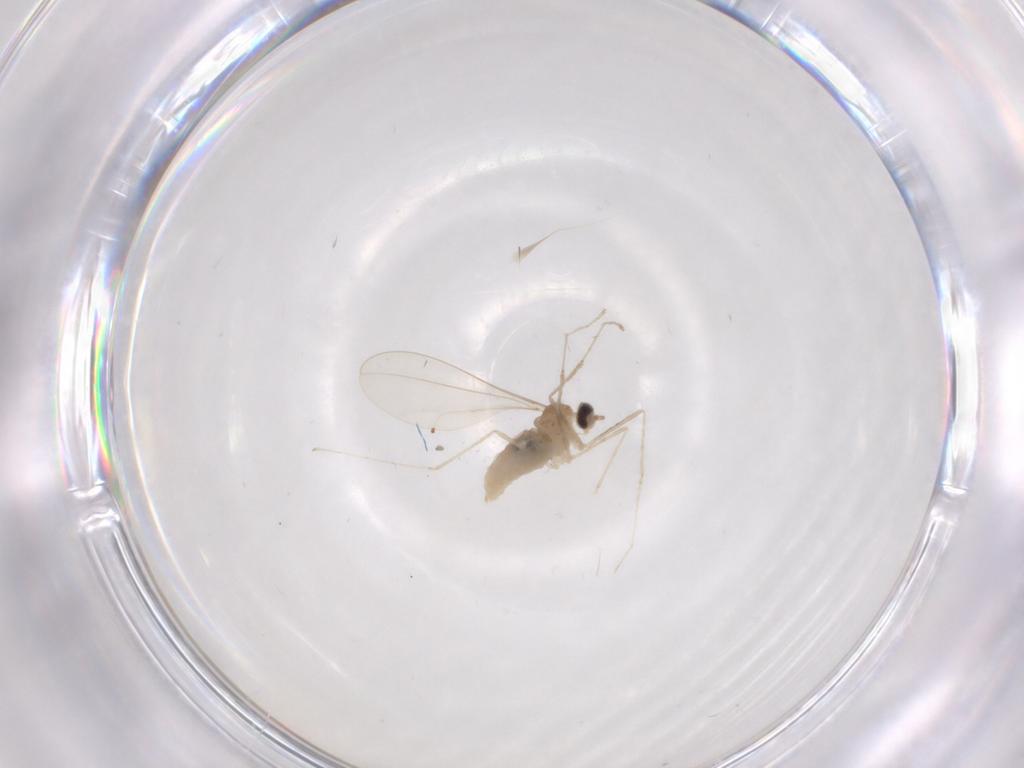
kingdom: Animalia
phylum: Arthropoda
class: Insecta
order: Diptera
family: Cecidomyiidae
